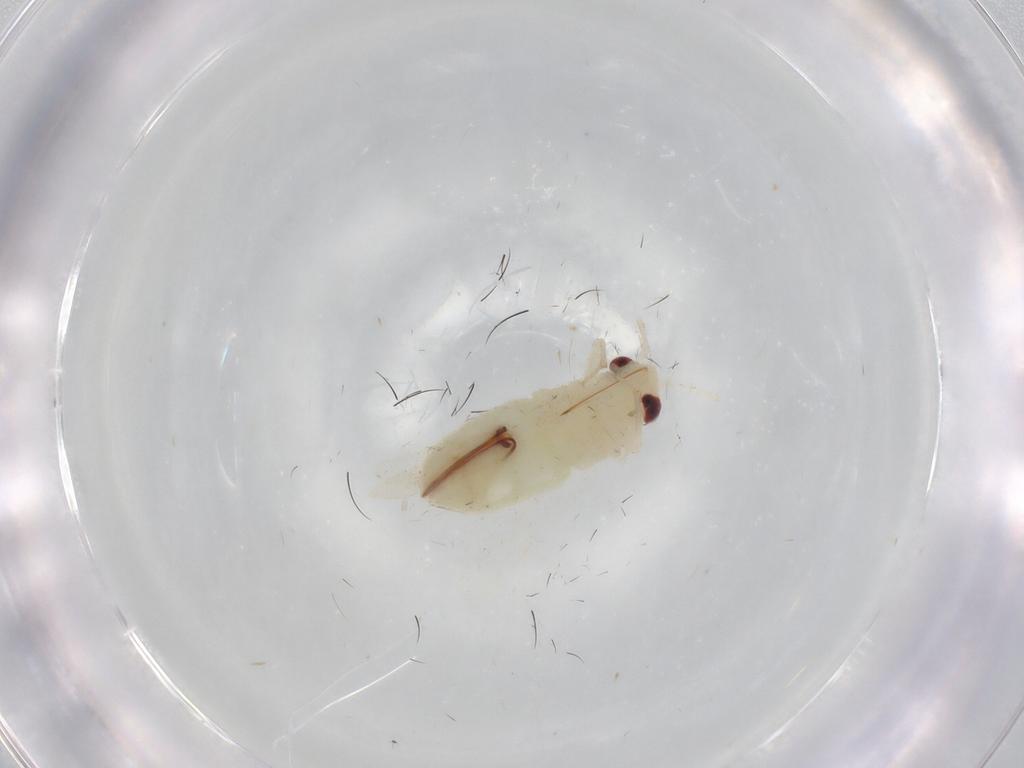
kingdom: Animalia
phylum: Arthropoda
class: Insecta
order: Hemiptera
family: Miridae
